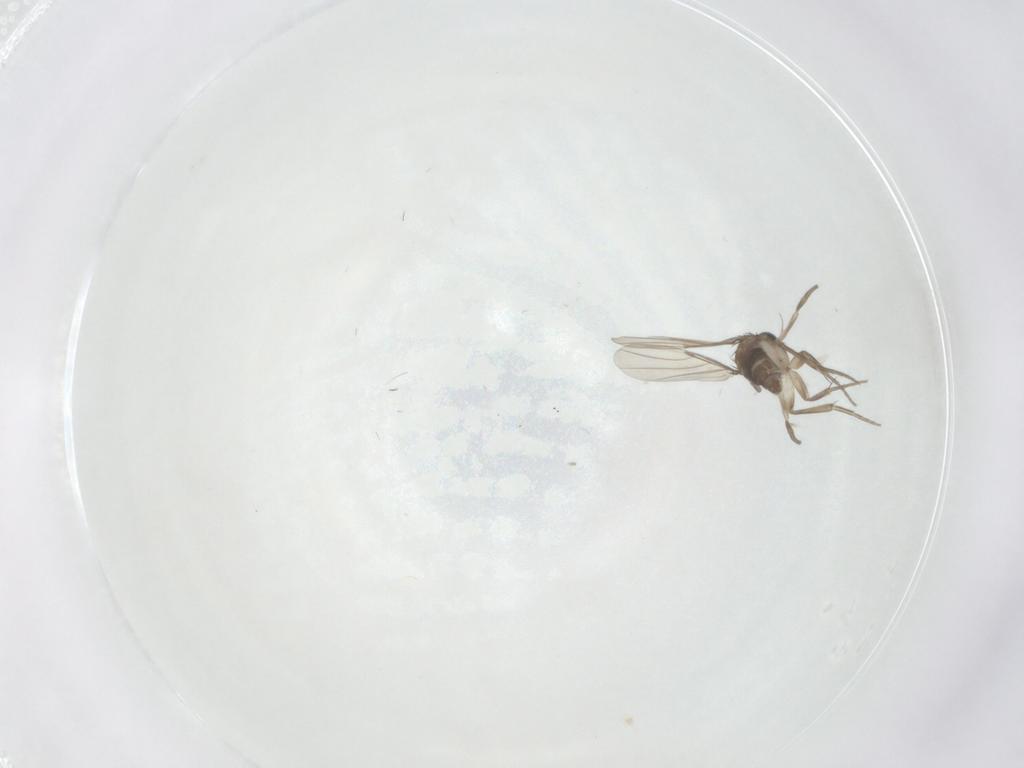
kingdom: Animalia
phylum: Arthropoda
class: Insecta
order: Diptera
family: Phoridae
